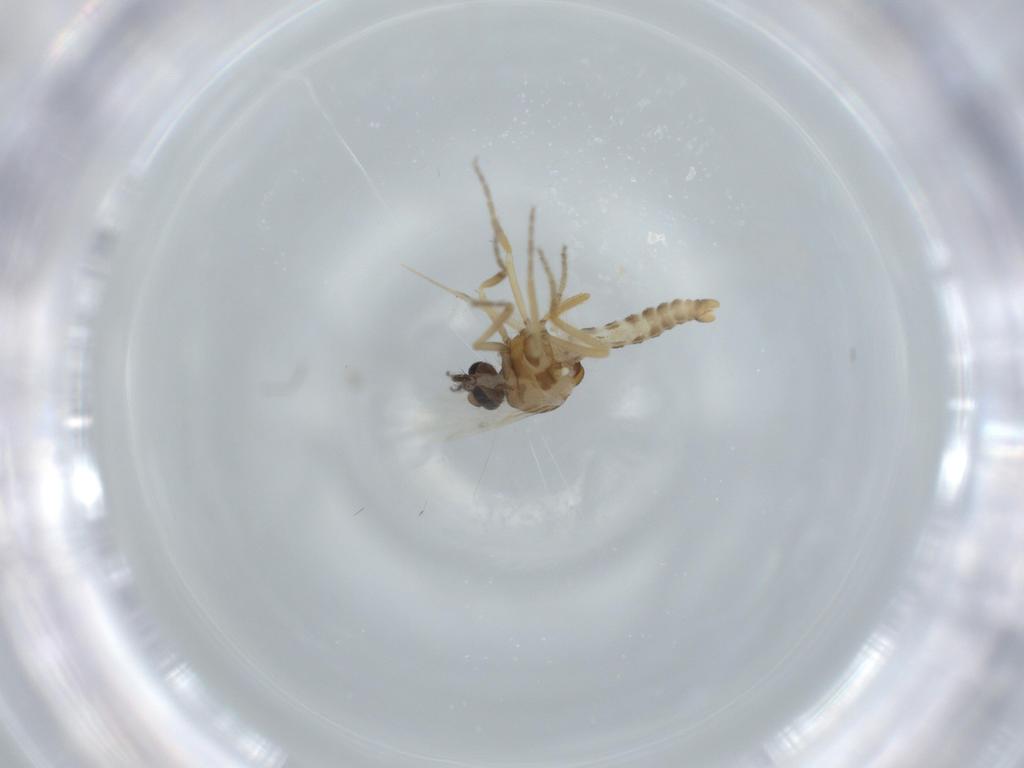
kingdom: Animalia
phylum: Arthropoda
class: Insecta
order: Diptera
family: Ceratopogonidae
